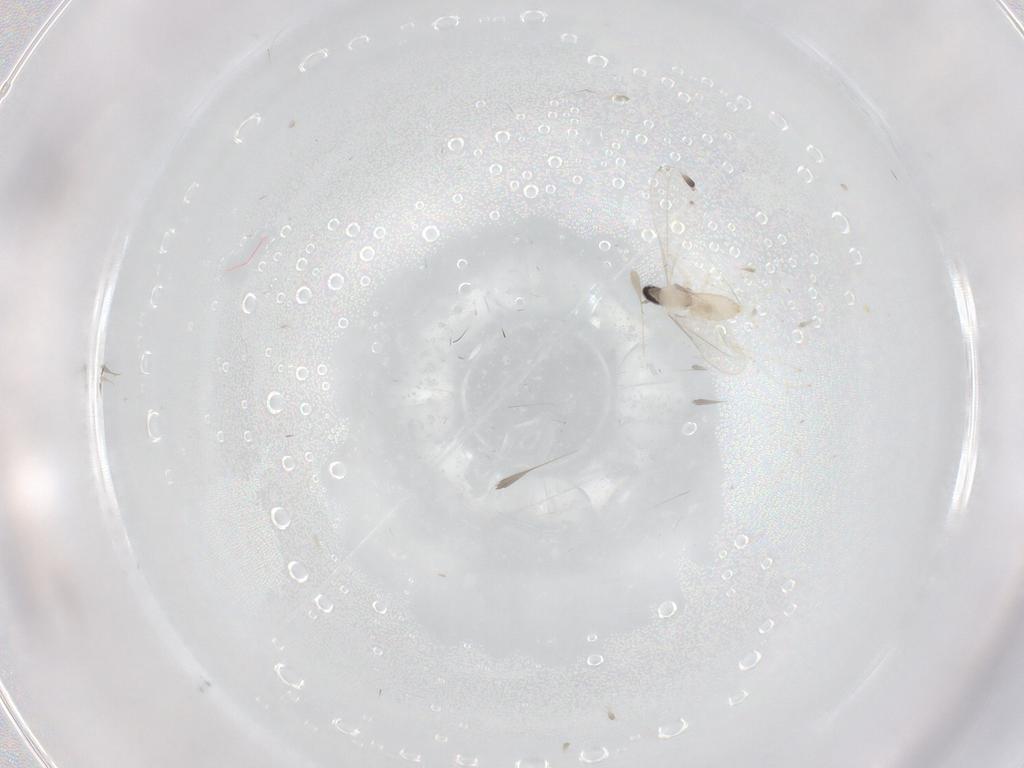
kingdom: Animalia
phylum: Arthropoda
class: Insecta
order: Diptera
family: Cecidomyiidae
